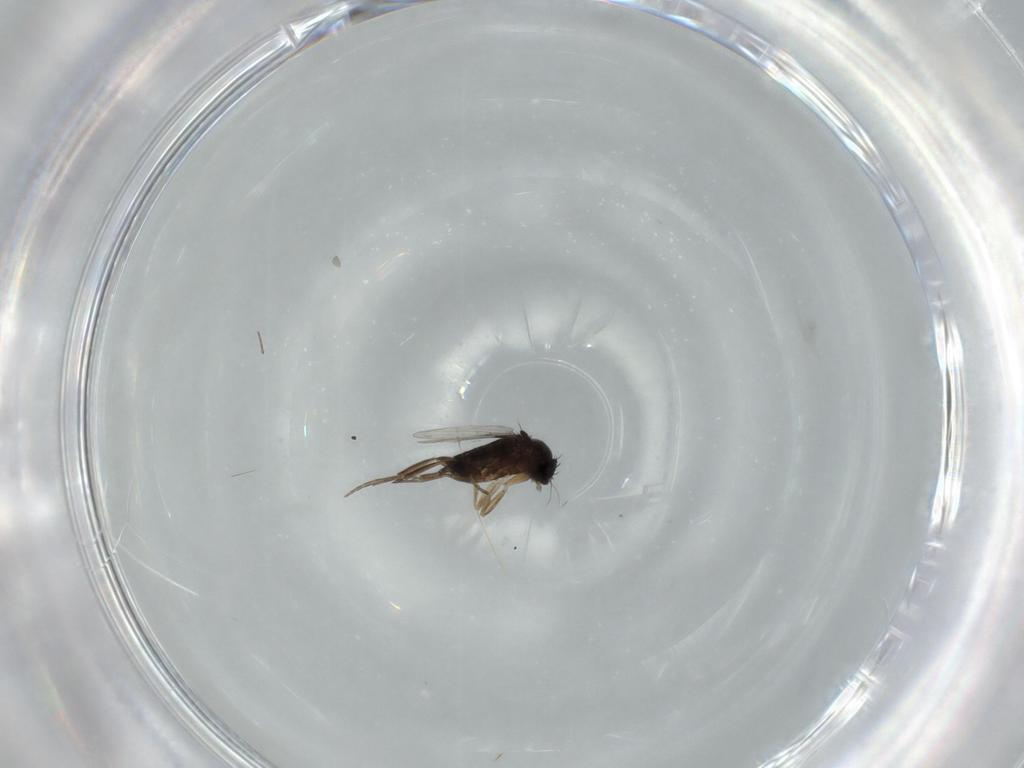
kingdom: Animalia
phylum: Arthropoda
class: Insecta
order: Diptera
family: Phoridae
